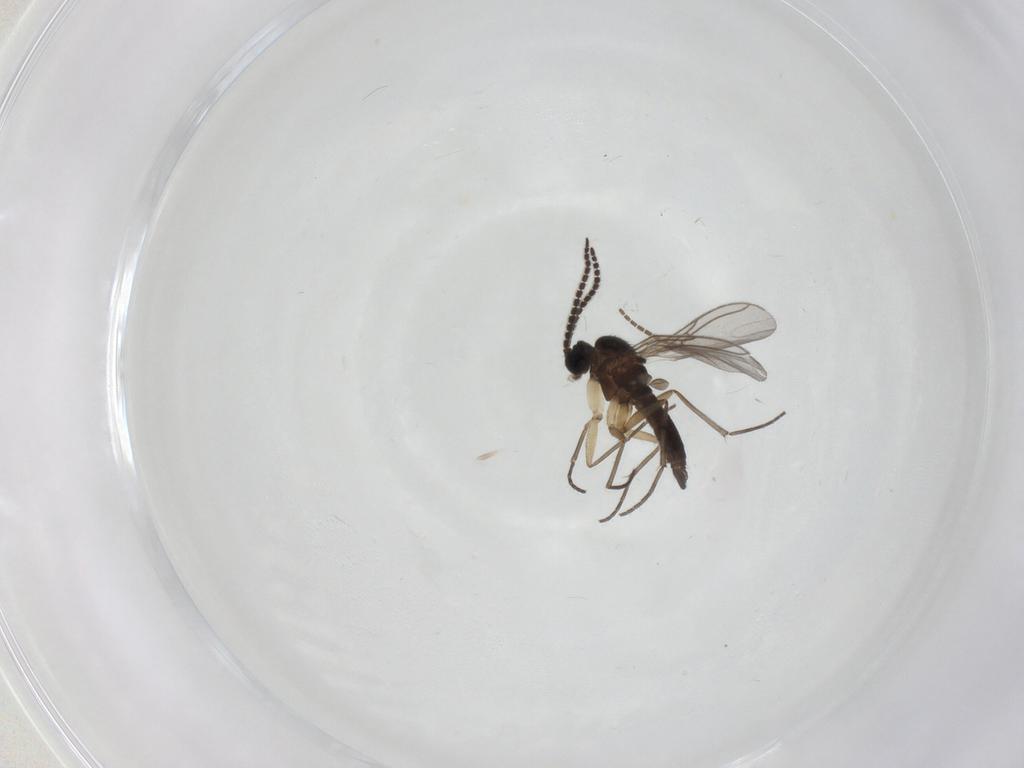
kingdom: Animalia
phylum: Arthropoda
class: Insecta
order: Diptera
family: Sciaridae
